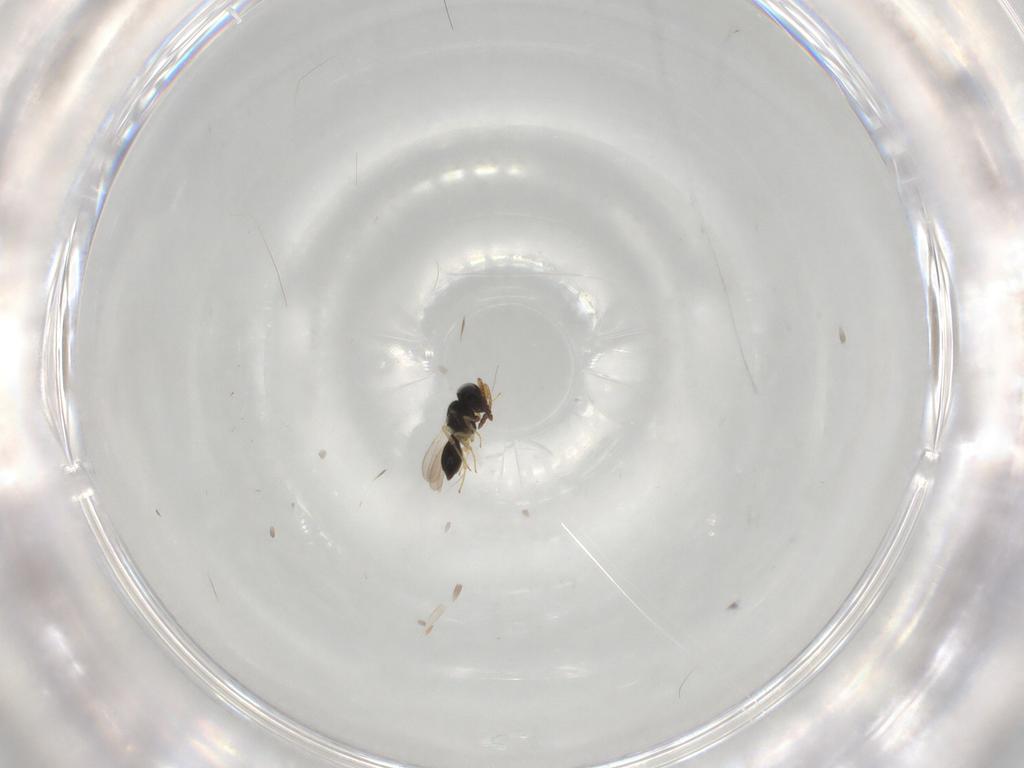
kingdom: Animalia
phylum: Arthropoda
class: Insecta
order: Hymenoptera
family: Scelionidae
